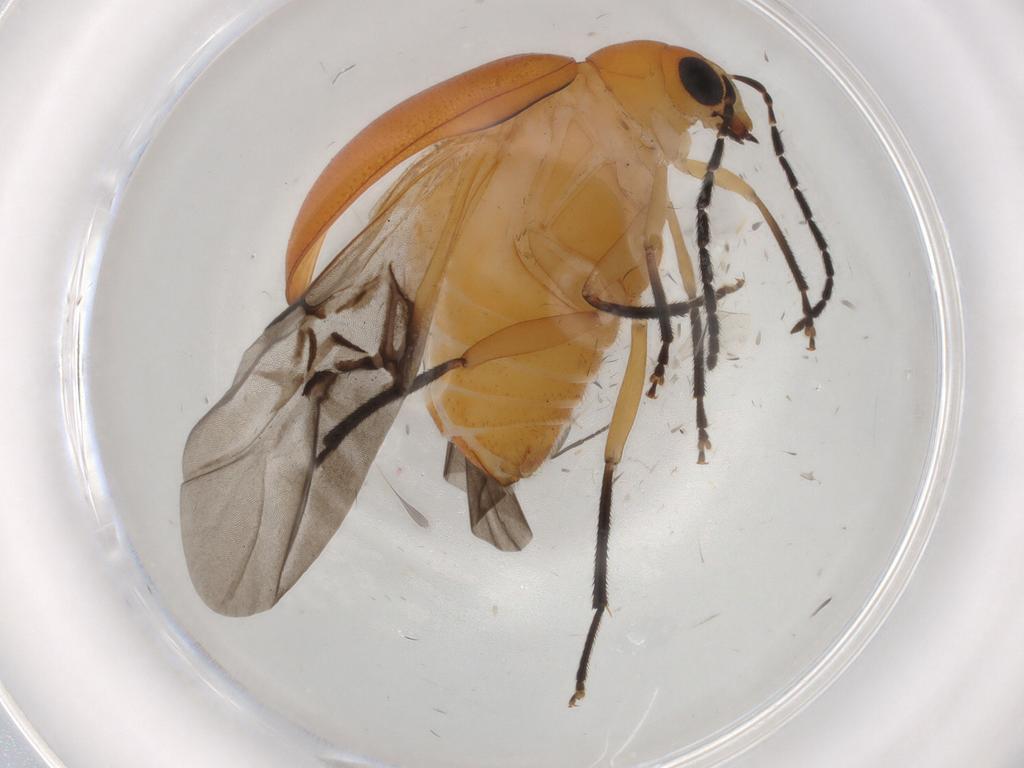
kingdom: Animalia
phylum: Arthropoda
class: Insecta
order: Coleoptera
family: Chrysomelidae
